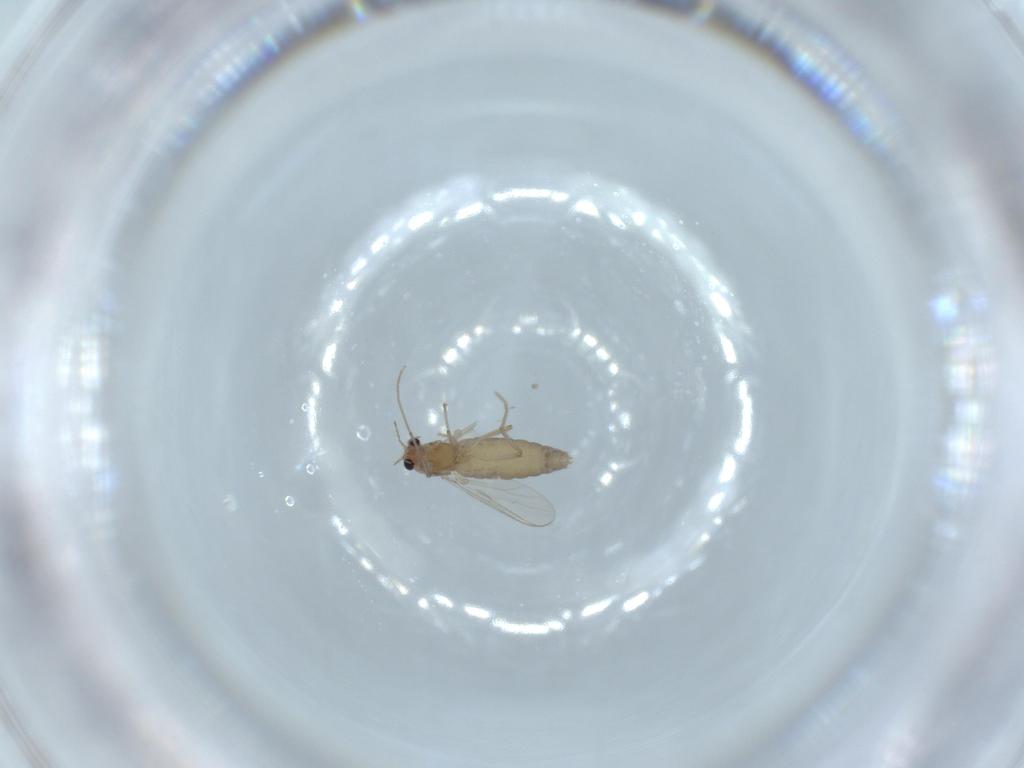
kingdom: Animalia
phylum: Arthropoda
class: Insecta
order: Diptera
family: Chironomidae
